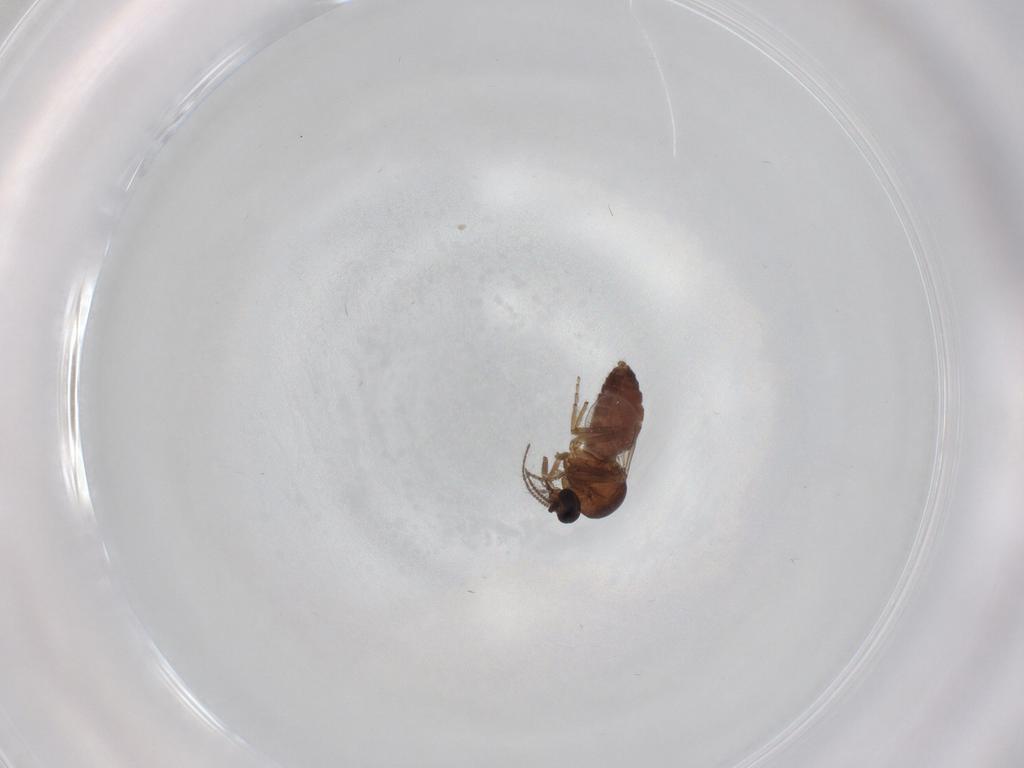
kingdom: Animalia
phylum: Arthropoda
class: Insecta
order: Diptera
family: Ceratopogonidae
